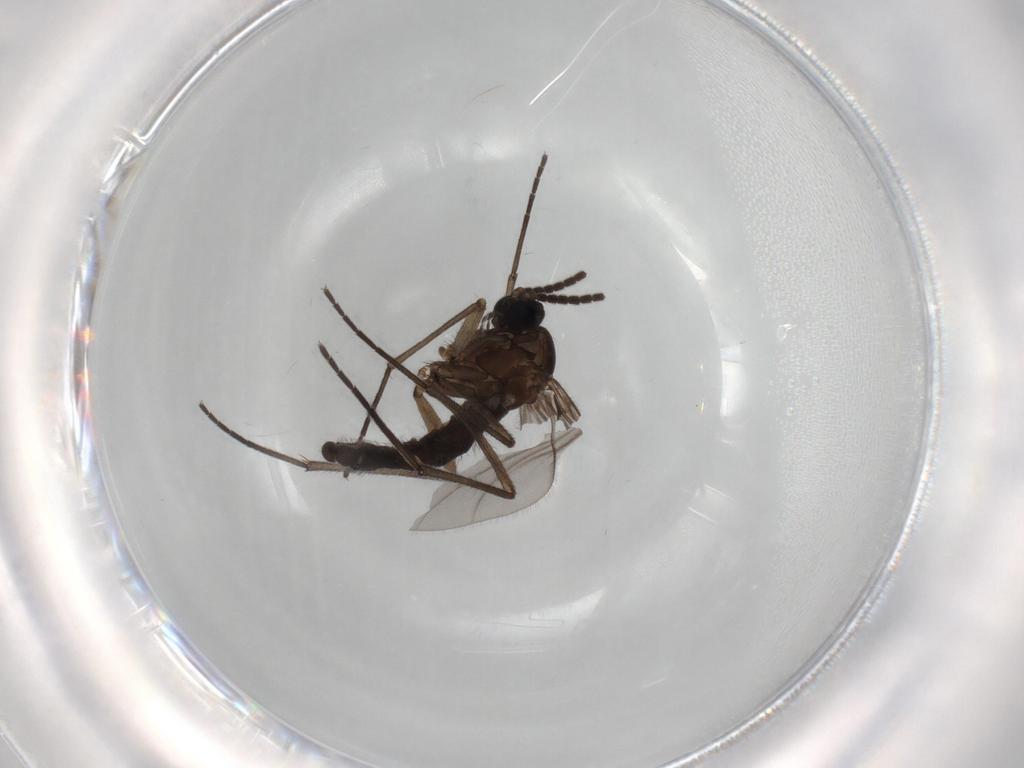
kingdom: Animalia
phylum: Arthropoda
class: Insecta
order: Diptera
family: Sciaridae
